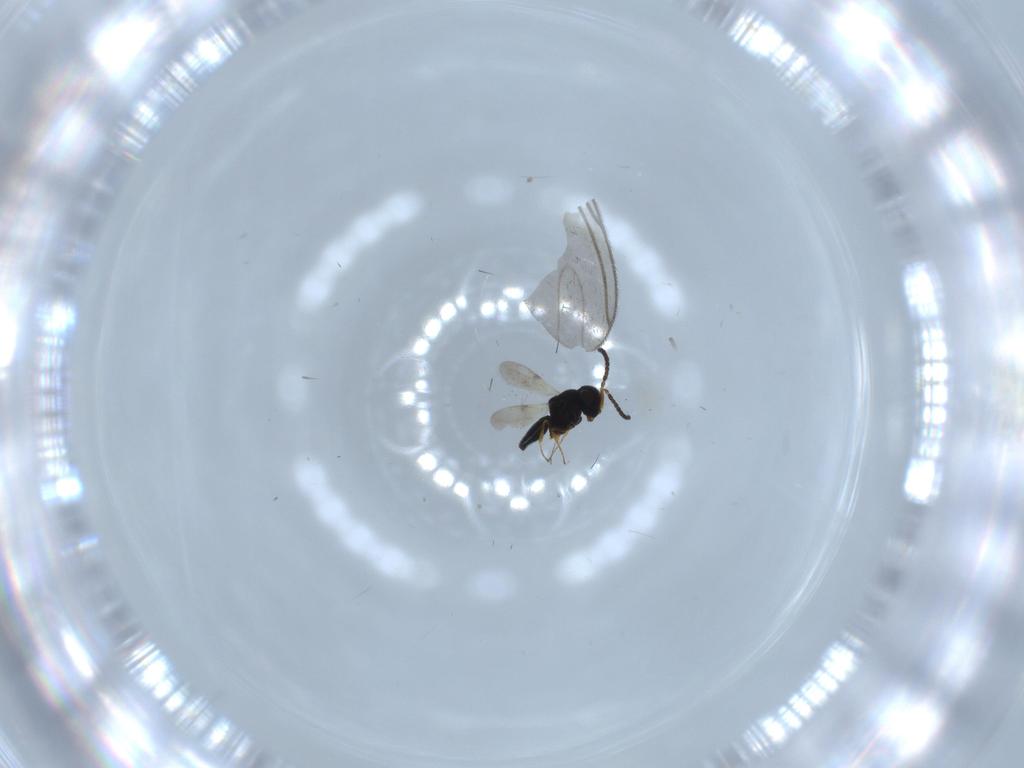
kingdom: Animalia
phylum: Arthropoda
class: Insecta
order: Hymenoptera
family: Scelionidae
